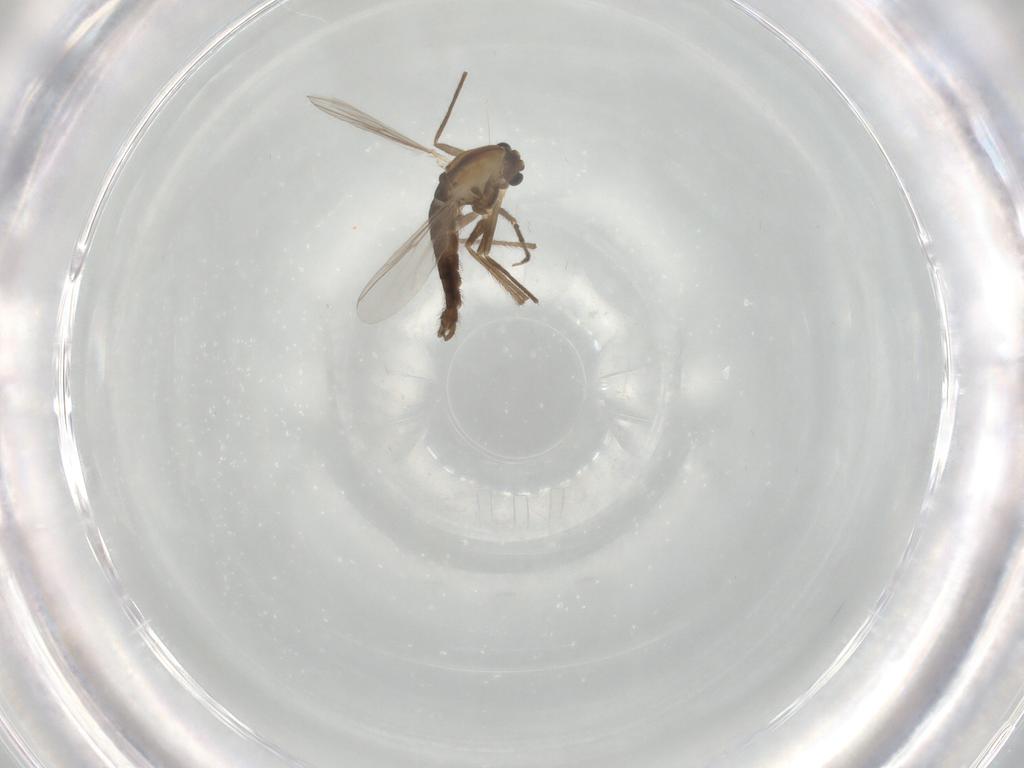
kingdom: Animalia
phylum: Arthropoda
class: Insecta
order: Diptera
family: Chironomidae
